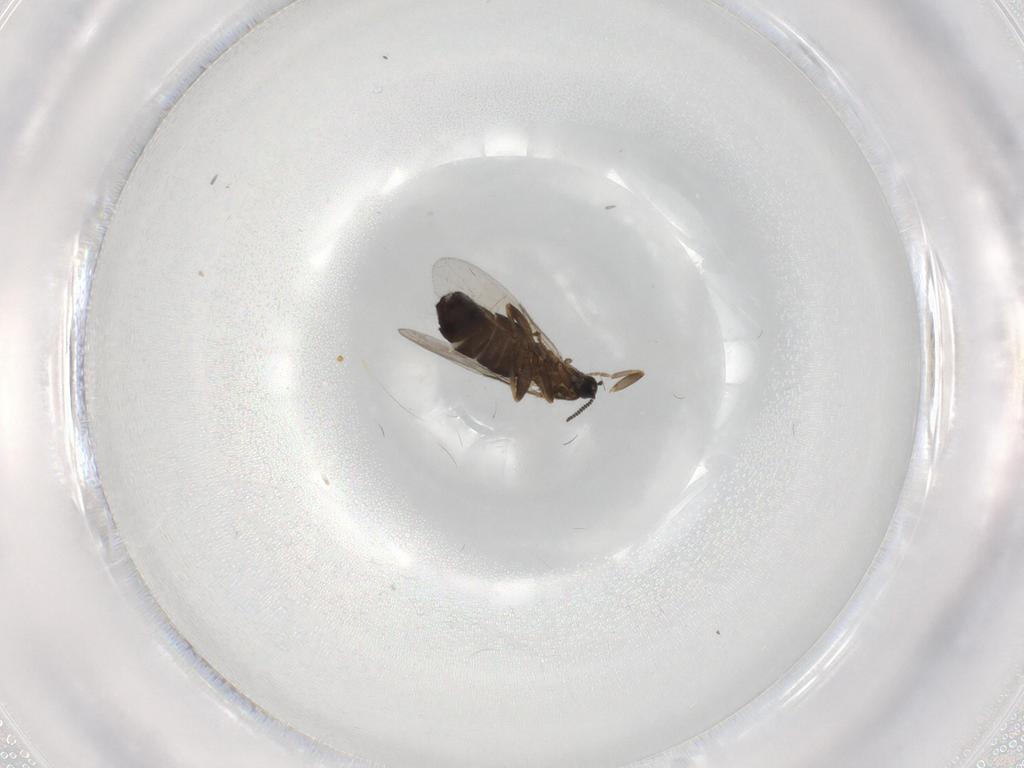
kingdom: Animalia
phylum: Arthropoda
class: Insecta
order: Diptera
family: Scatopsidae
